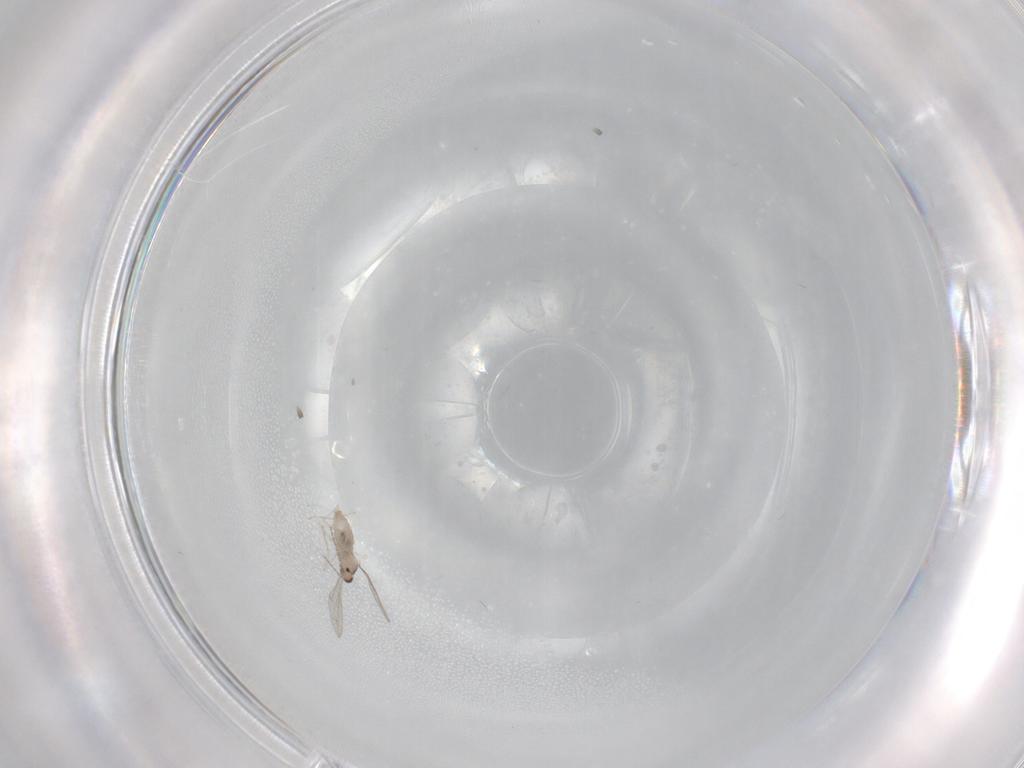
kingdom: Animalia
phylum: Arthropoda
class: Insecta
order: Diptera
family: Cecidomyiidae
